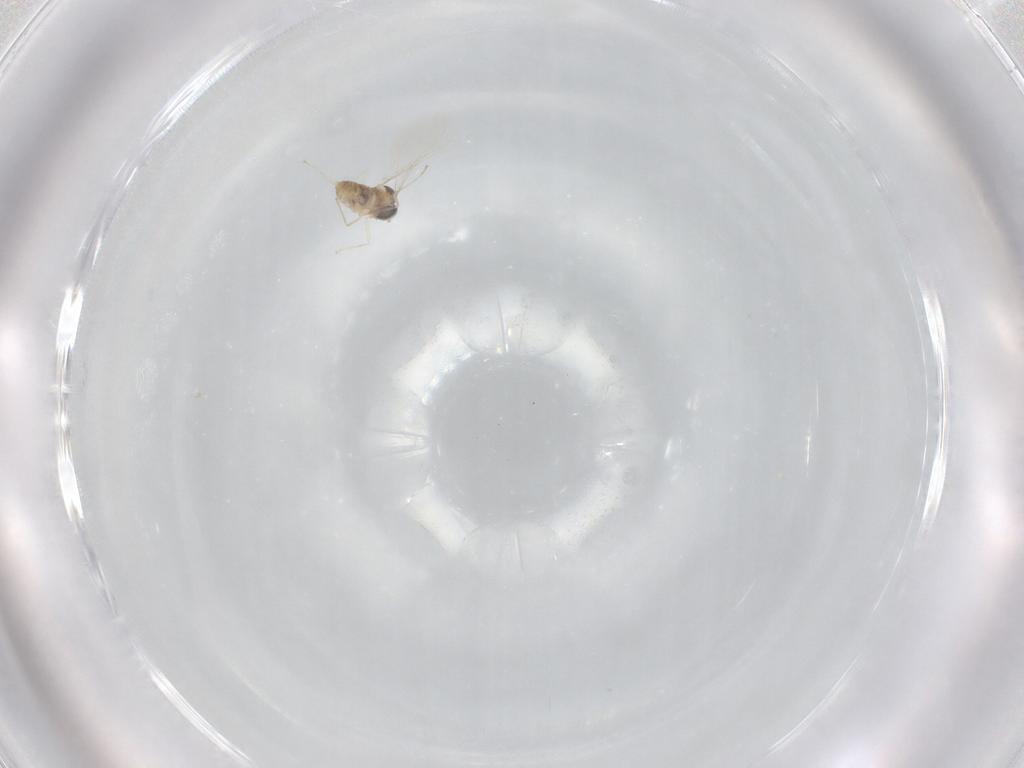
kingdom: Animalia
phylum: Arthropoda
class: Insecta
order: Diptera
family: Cecidomyiidae
